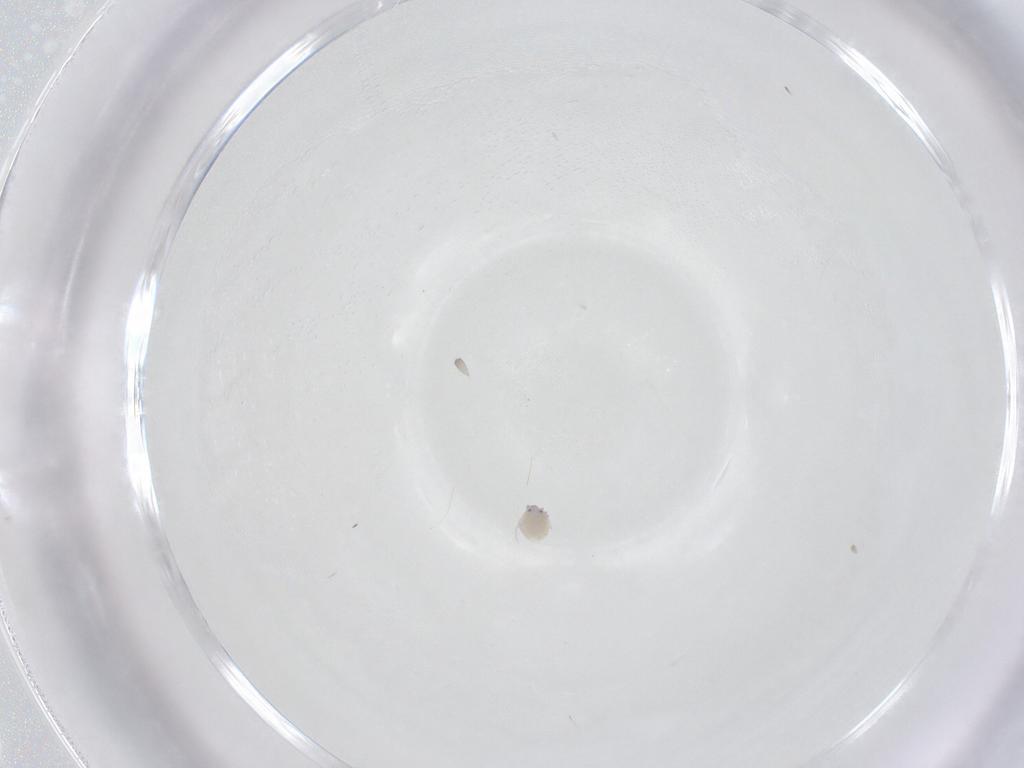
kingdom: Animalia
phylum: Arthropoda
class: Arachnida
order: Trombidiformes
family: Pionidae
